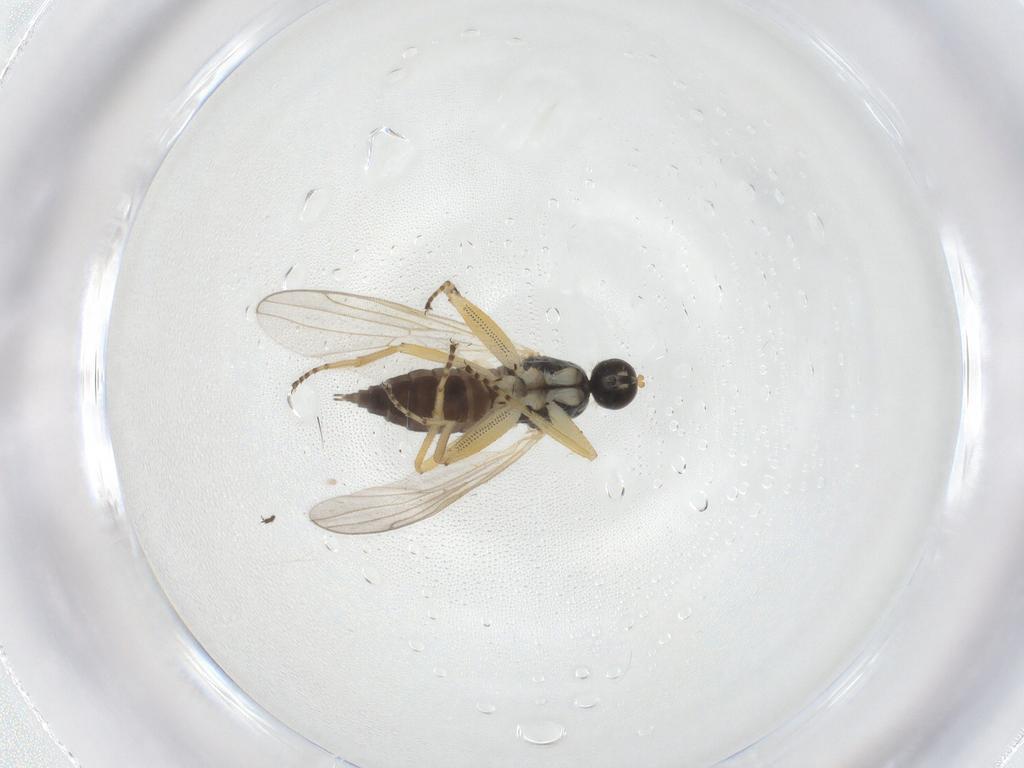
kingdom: Animalia
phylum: Arthropoda
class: Insecta
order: Diptera
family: Hybotidae
